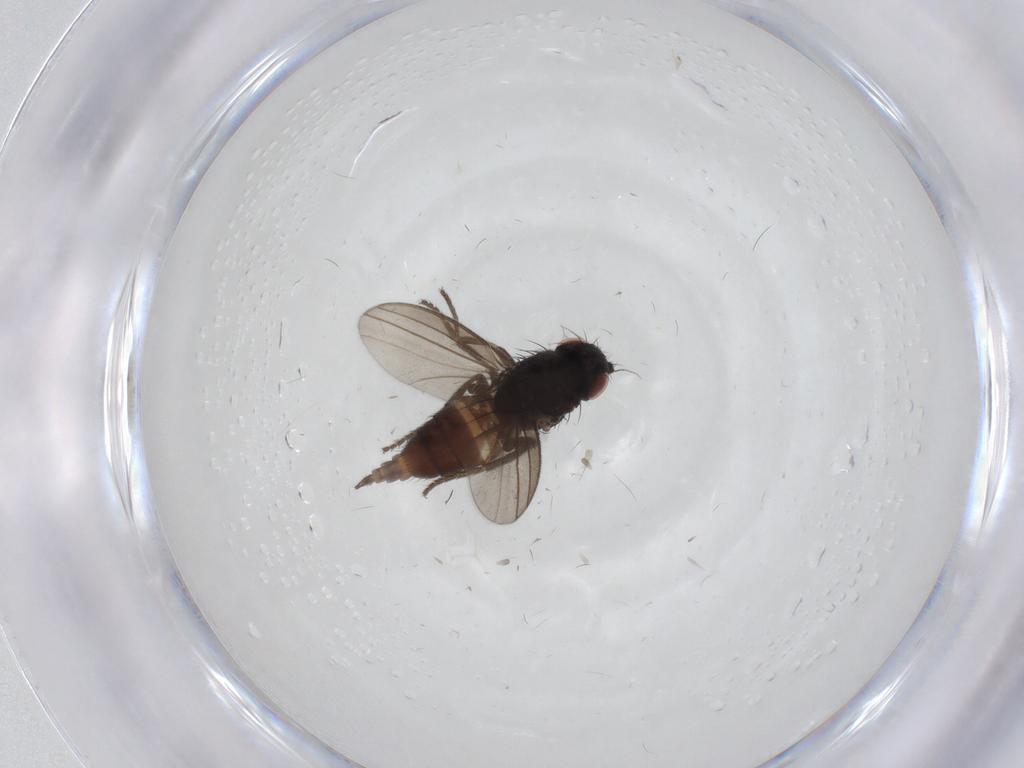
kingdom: Animalia
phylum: Arthropoda
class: Insecta
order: Diptera
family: Milichiidae
